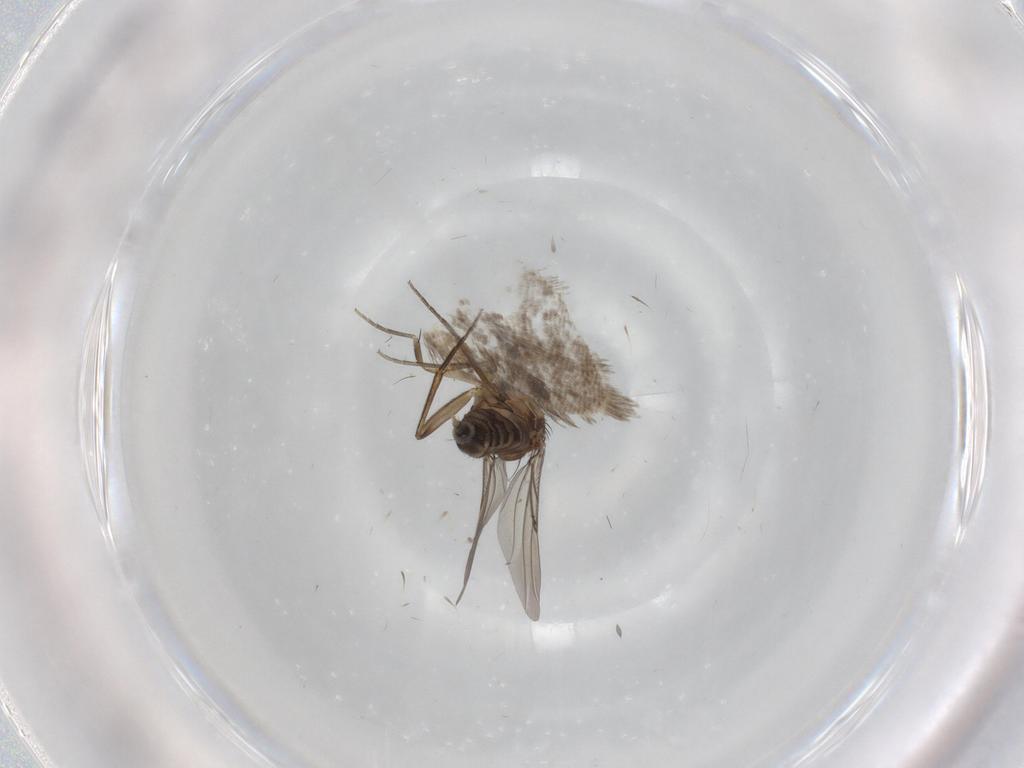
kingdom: Animalia
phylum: Arthropoda
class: Insecta
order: Diptera
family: Phoridae
